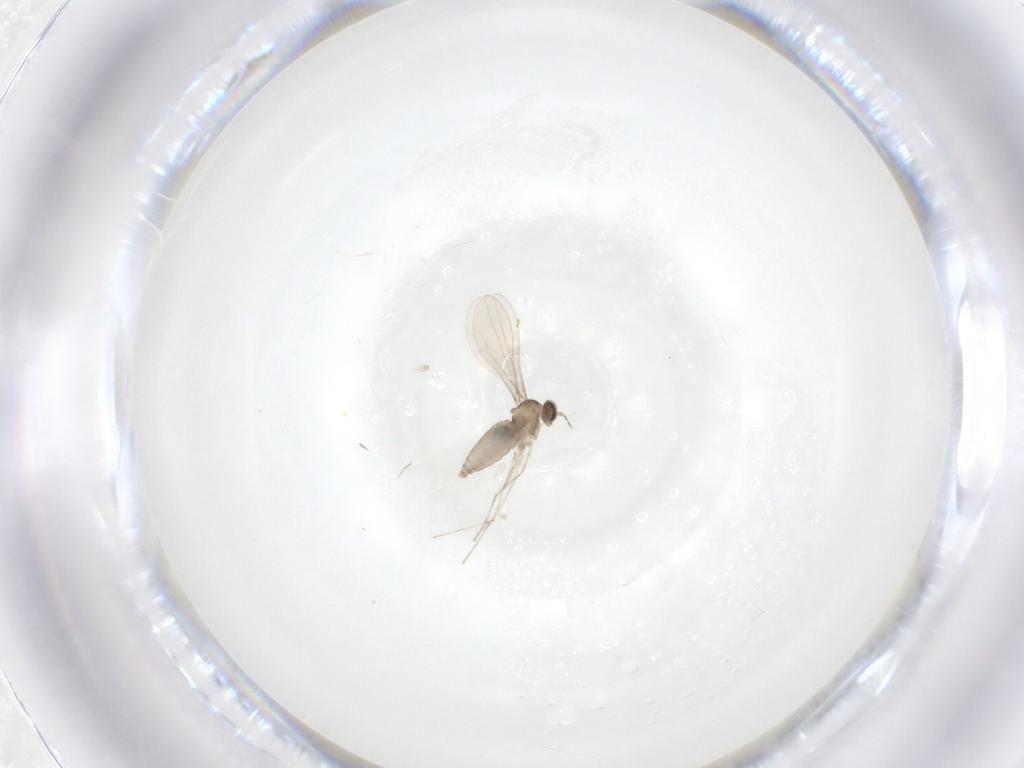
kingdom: Animalia
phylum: Arthropoda
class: Insecta
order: Diptera
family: Cecidomyiidae
